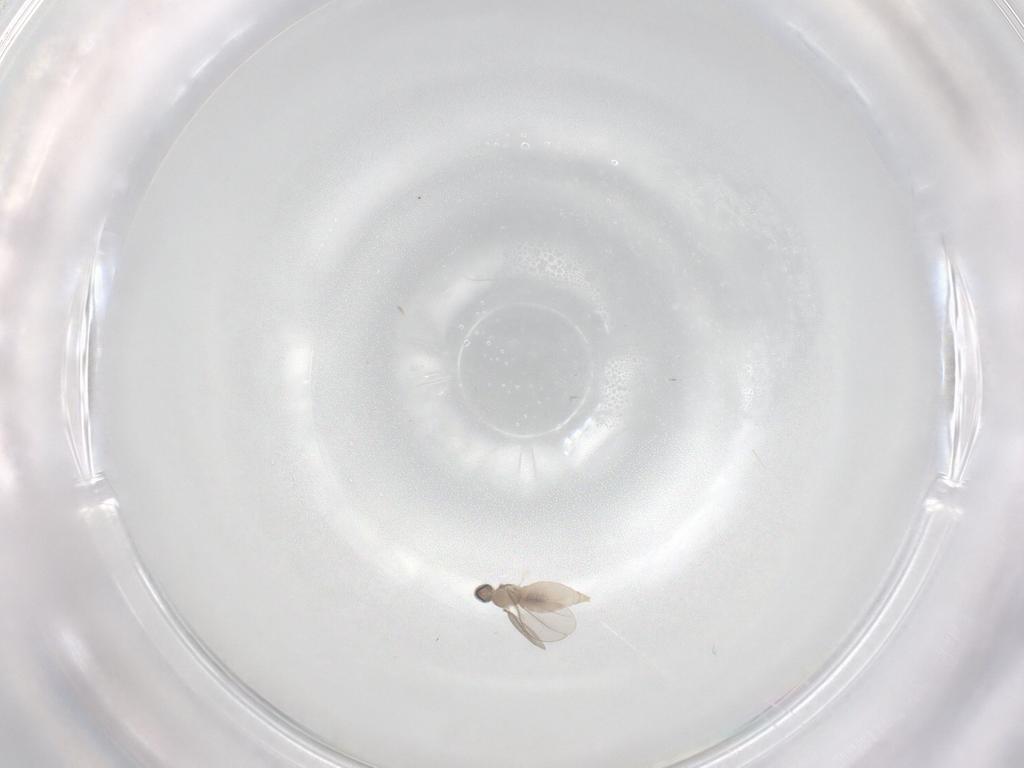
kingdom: Animalia
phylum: Arthropoda
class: Insecta
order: Diptera
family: Cecidomyiidae
